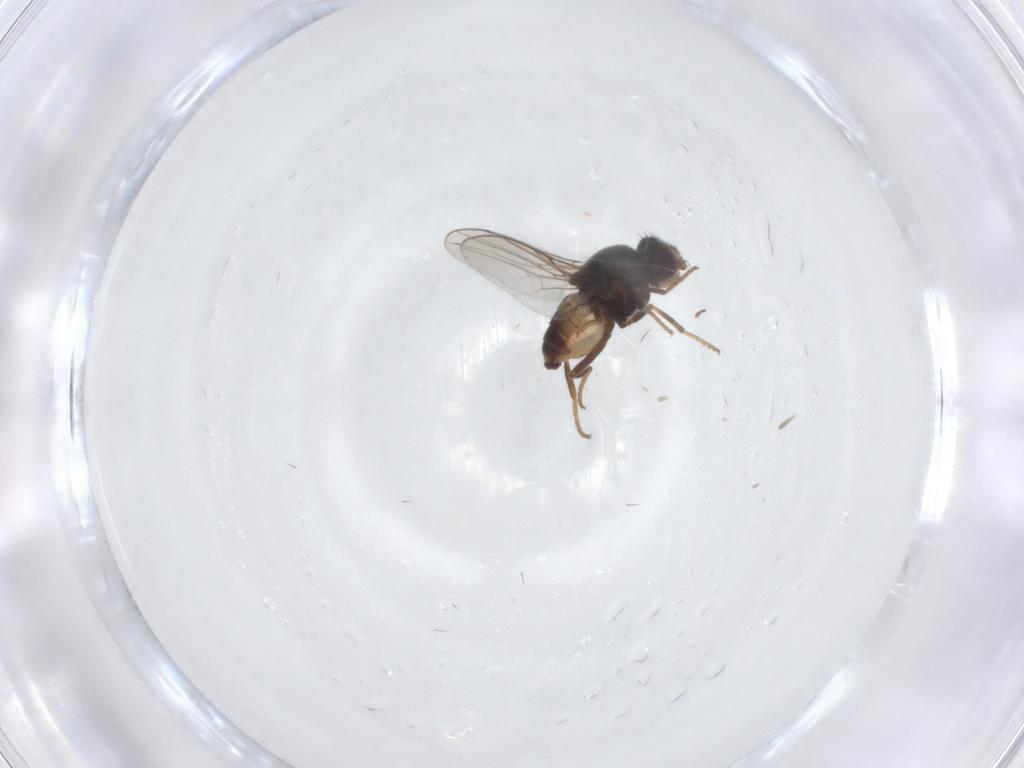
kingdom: Animalia
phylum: Arthropoda
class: Insecta
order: Diptera
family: Chloropidae
